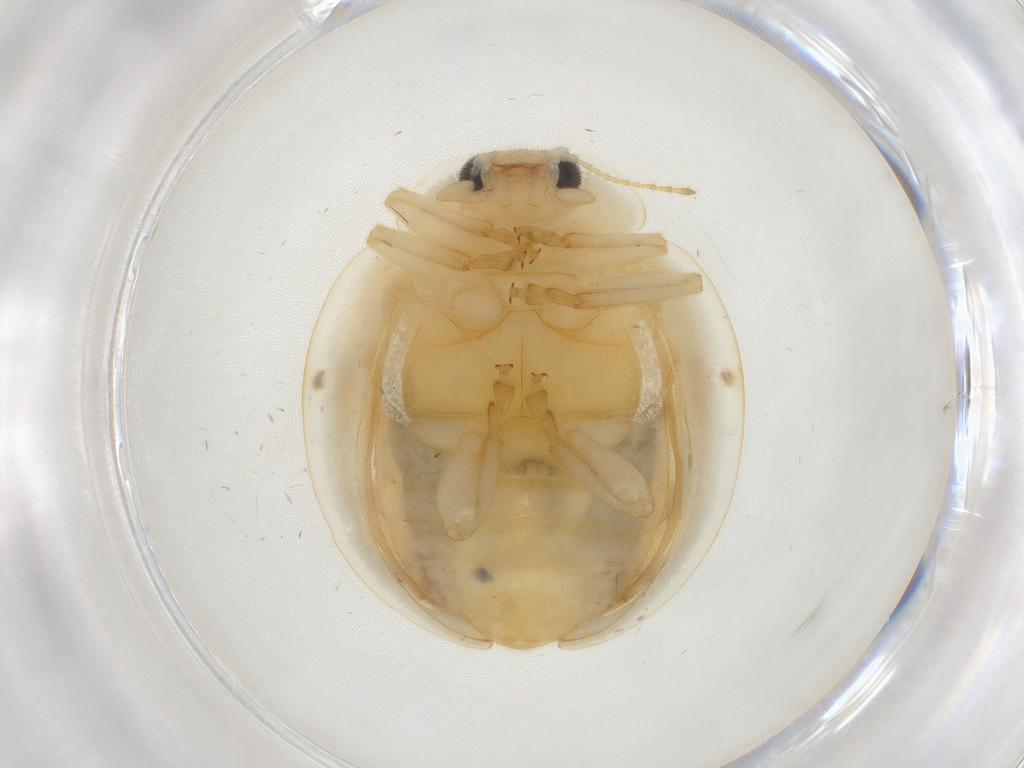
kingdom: Animalia
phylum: Arthropoda
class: Insecta
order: Coleoptera
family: Coccinellidae
